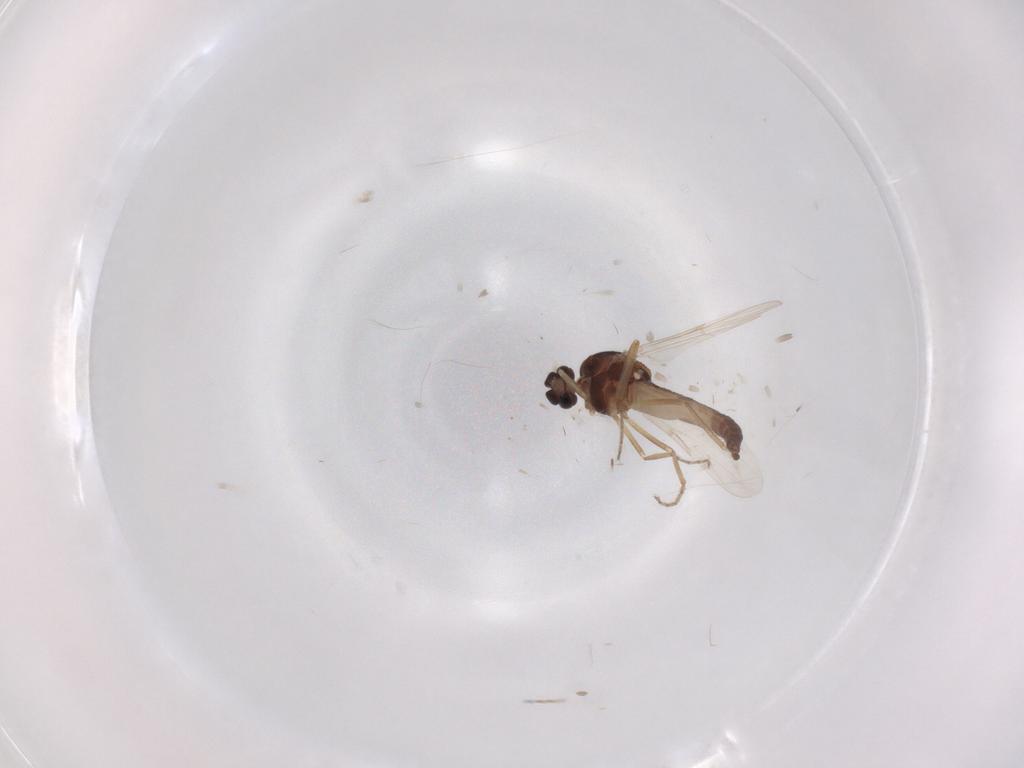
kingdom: Animalia
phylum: Arthropoda
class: Insecta
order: Diptera
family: Ceratopogonidae
